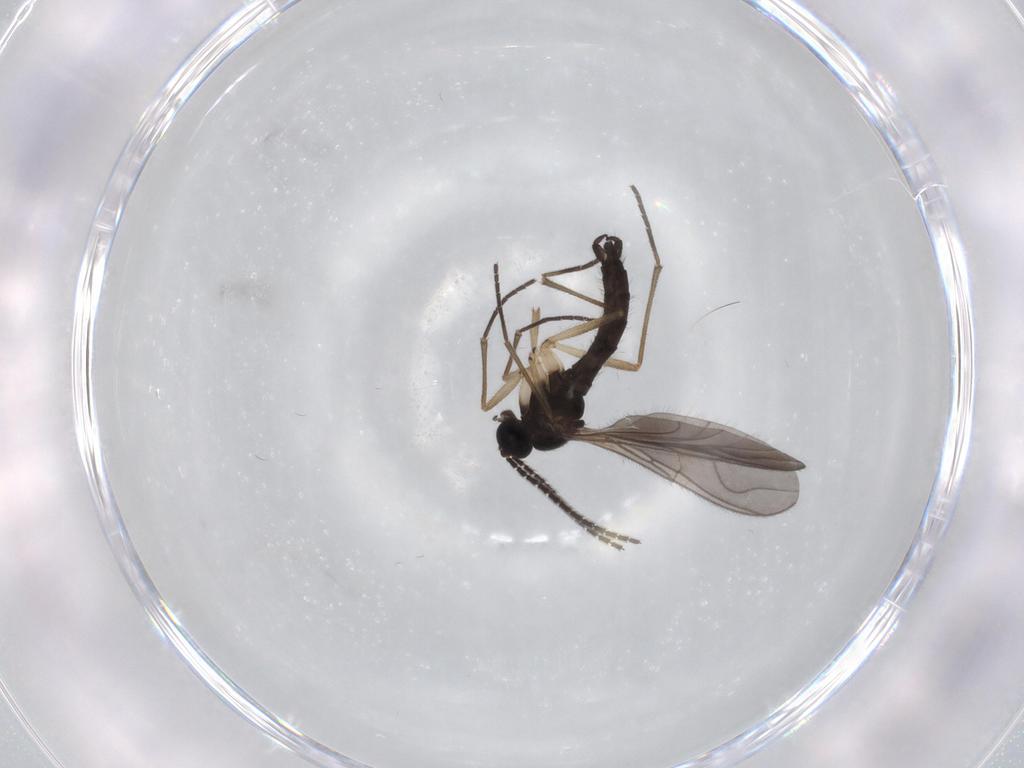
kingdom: Animalia
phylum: Arthropoda
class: Insecta
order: Diptera
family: Sciaridae
